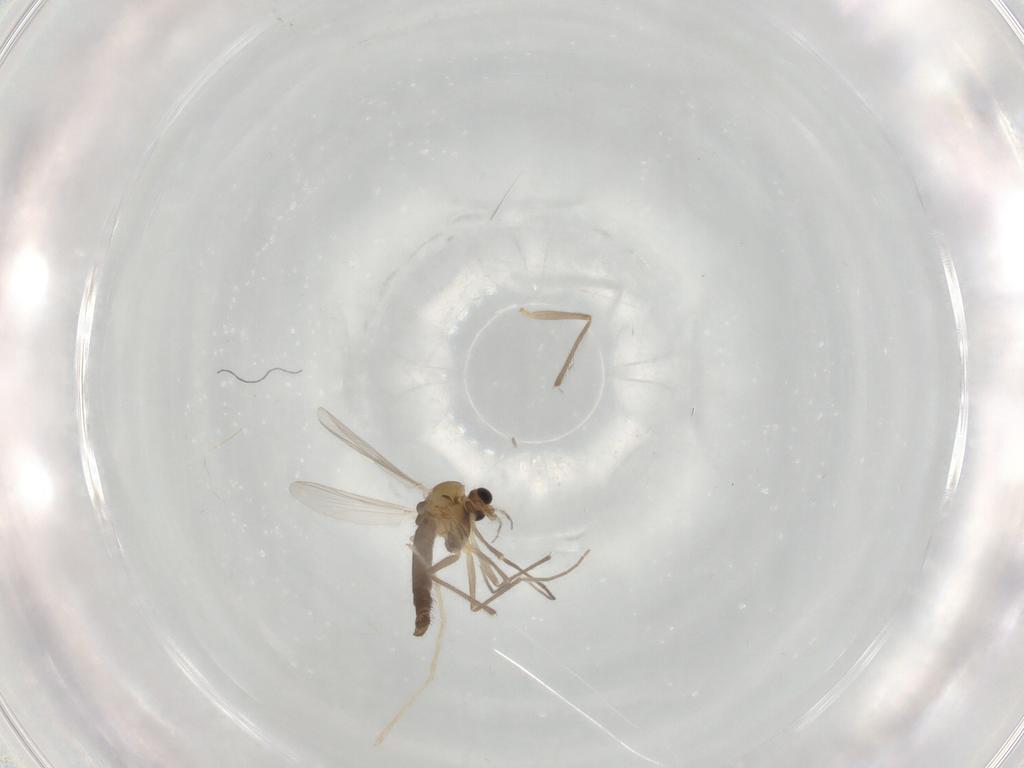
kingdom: Animalia
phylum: Arthropoda
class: Insecta
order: Diptera
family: Chironomidae
